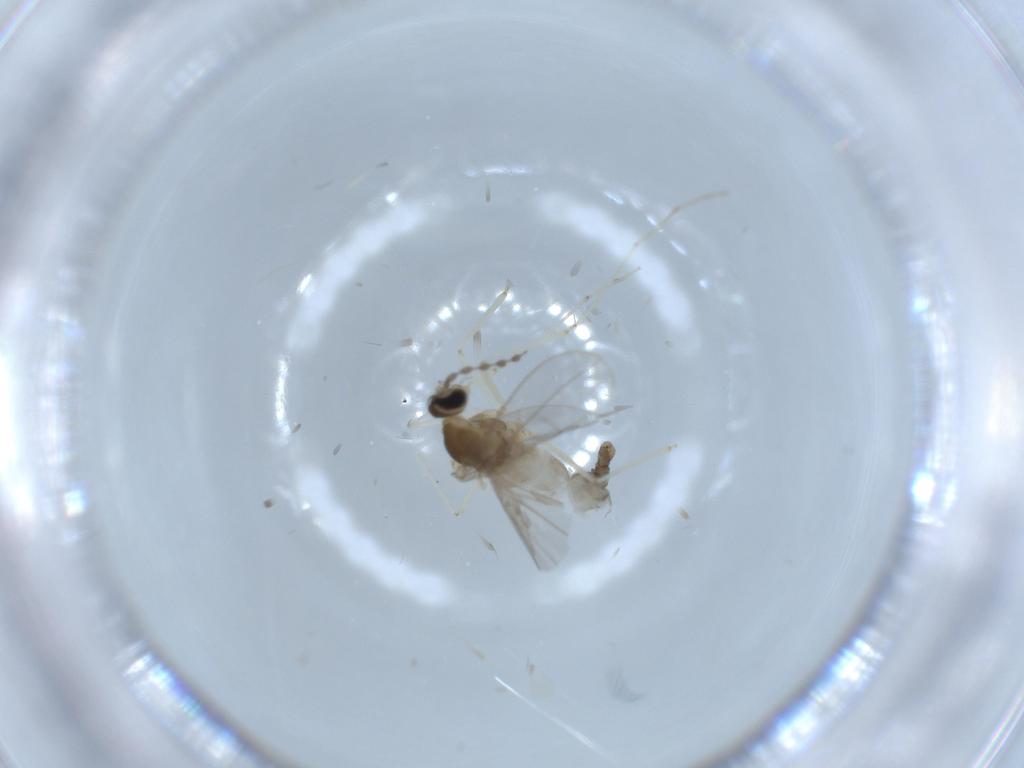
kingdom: Animalia
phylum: Arthropoda
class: Insecta
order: Diptera
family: Cecidomyiidae
